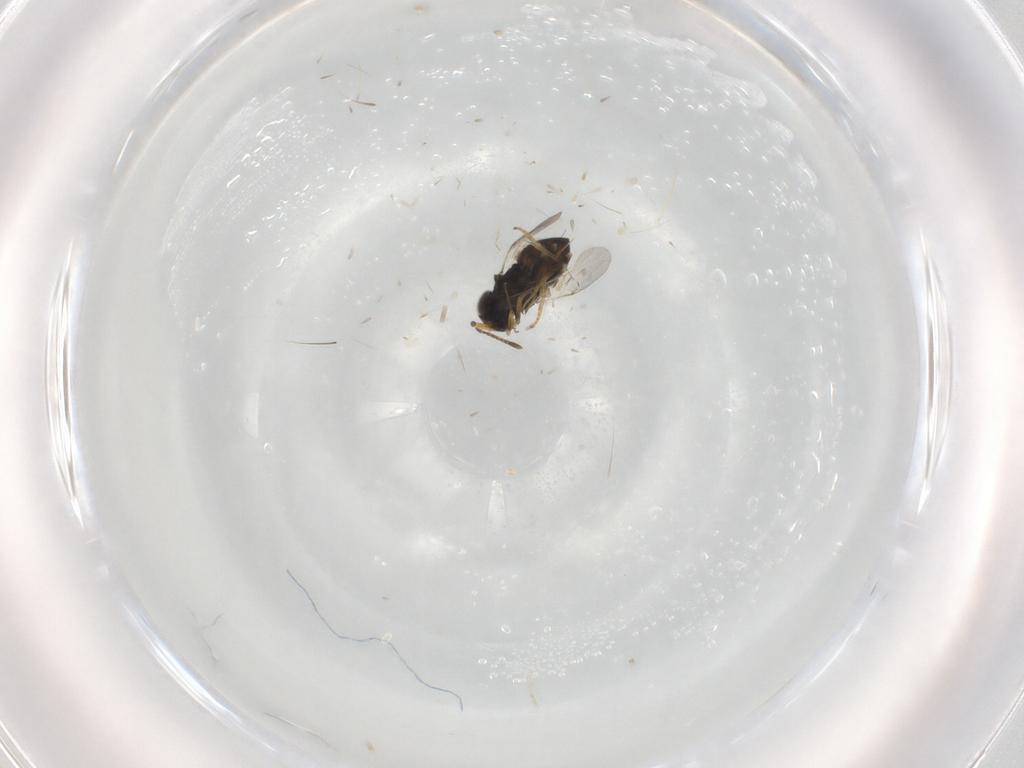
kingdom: Animalia
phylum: Arthropoda
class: Insecta
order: Hymenoptera
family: Encyrtidae
